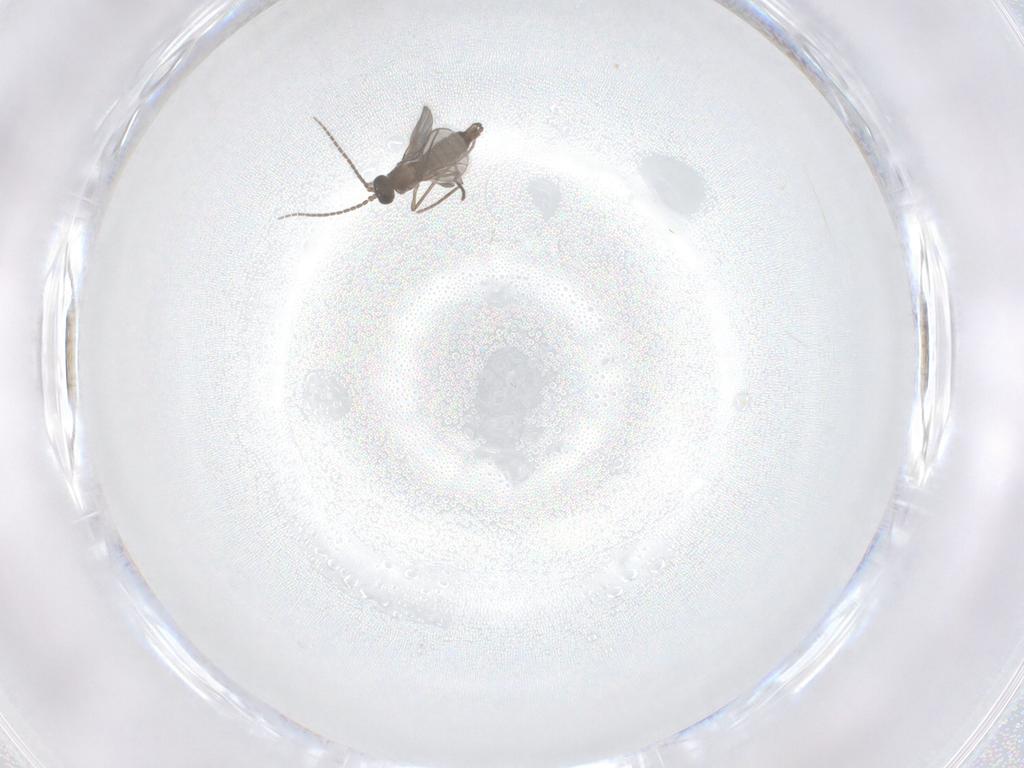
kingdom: Animalia
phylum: Arthropoda
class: Insecta
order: Diptera
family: Sciaridae
